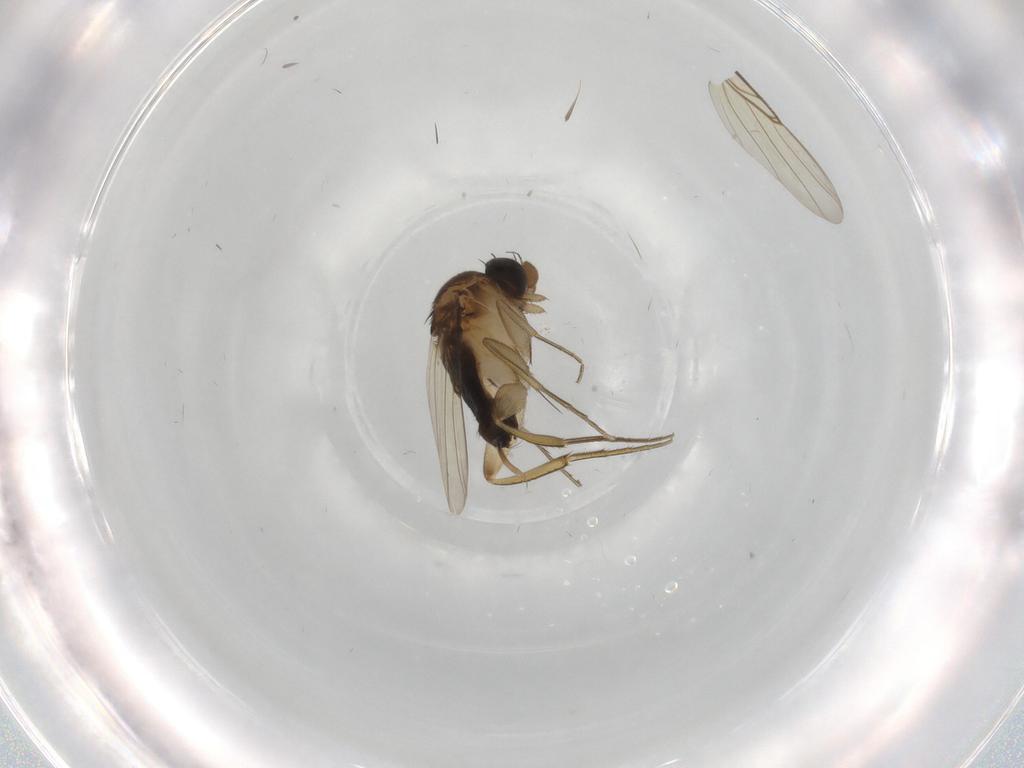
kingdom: Animalia
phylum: Arthropoda
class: Insecta
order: Diptera
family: Phoridae
